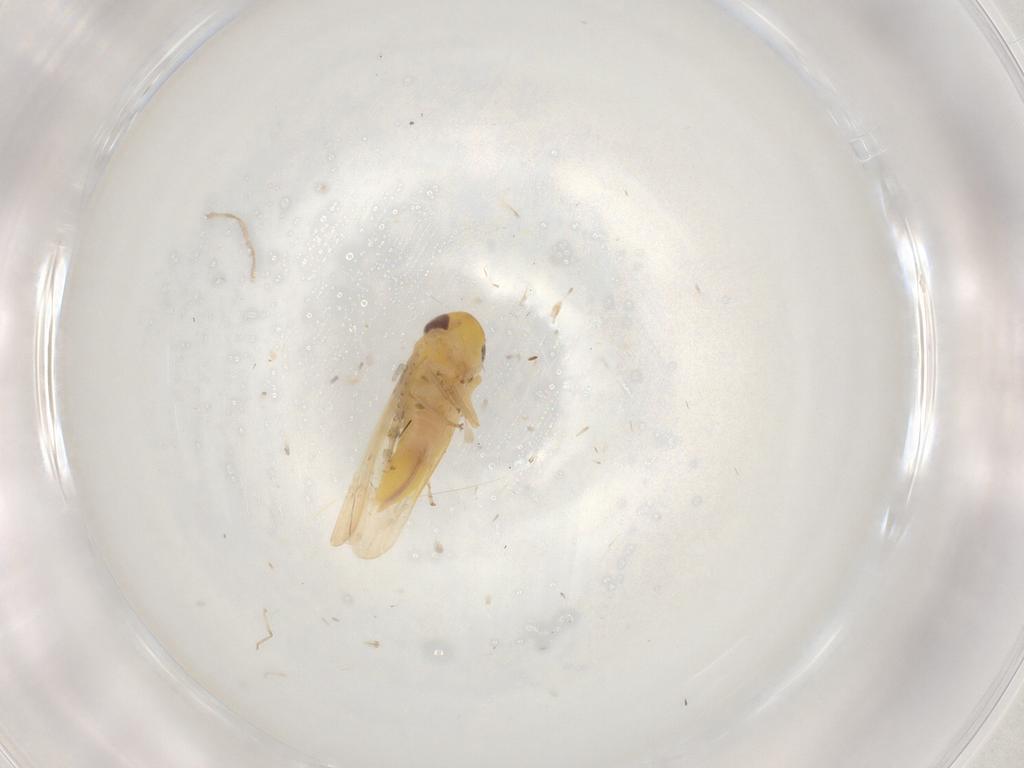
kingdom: Animalia
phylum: Arthropoda
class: Insecta
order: Hemiptera
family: Cicadellidae
